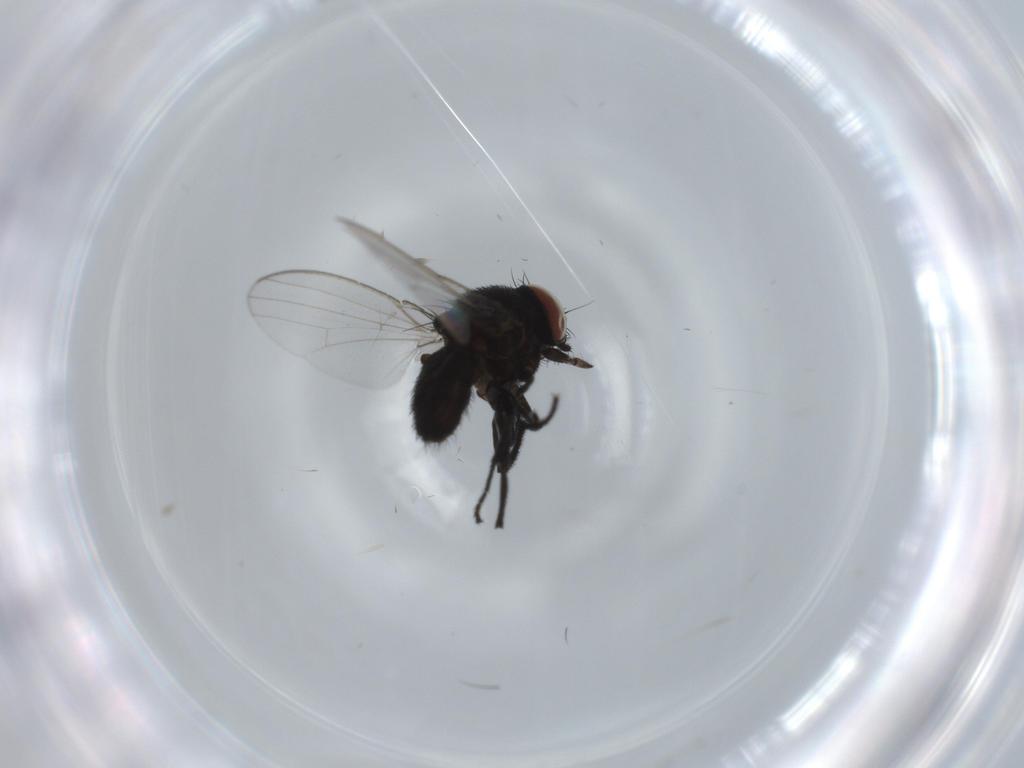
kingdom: Animalia
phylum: Arthropoda
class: Insecta
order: Diptera
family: Milichiidae
